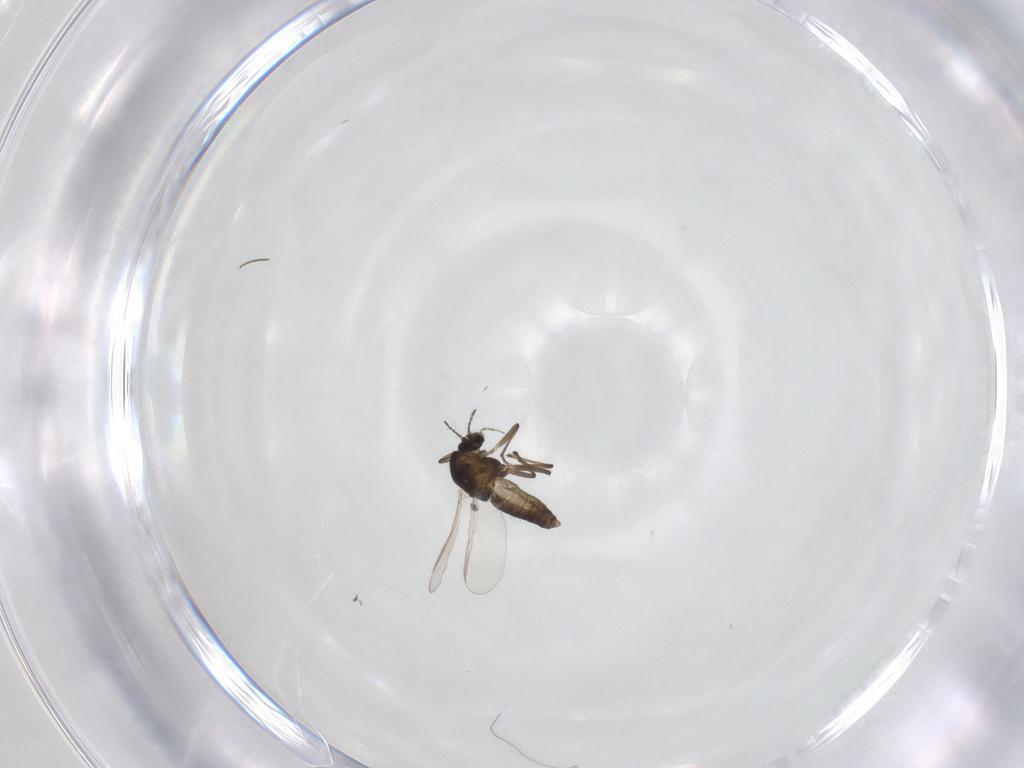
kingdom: Animalia
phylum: Arthropoda
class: Insecta
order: Diptera
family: Chironomidae
